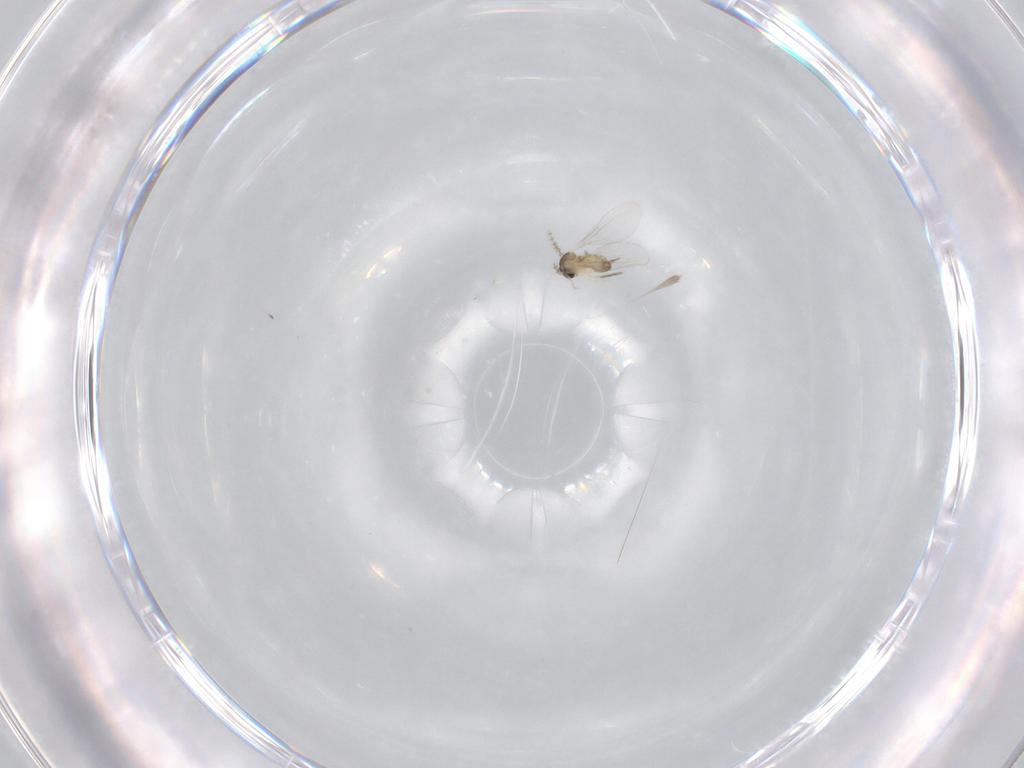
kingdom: Animalia
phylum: Arthropoda
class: Insecta
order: Diptera
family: Cecidomyiidae
